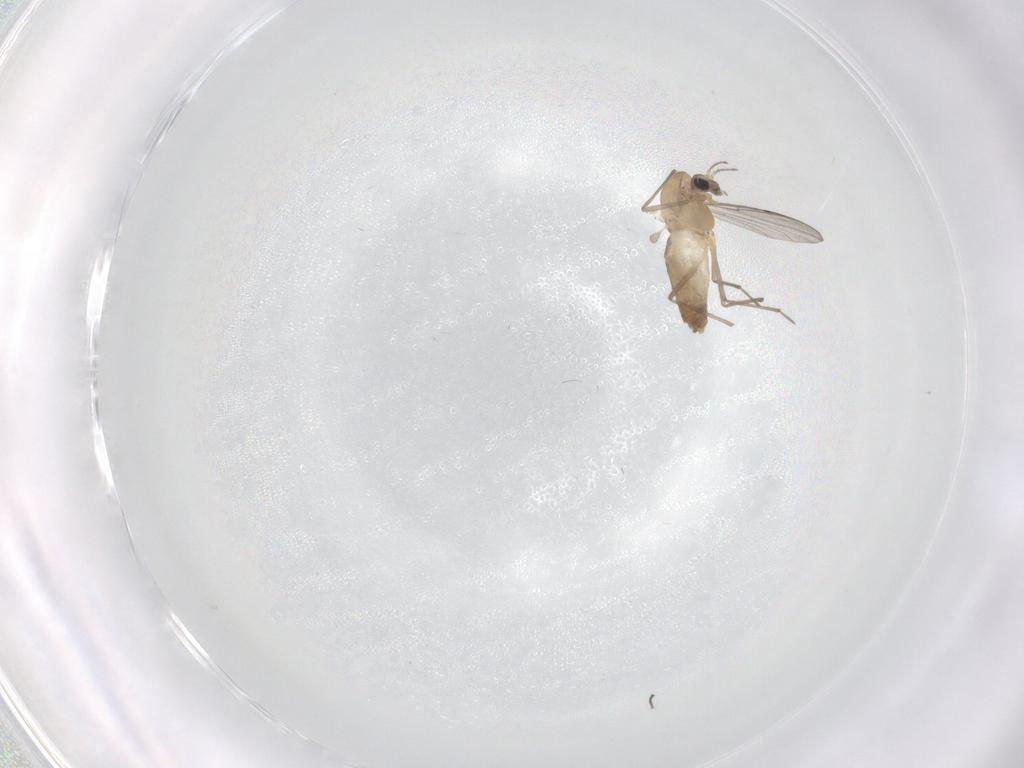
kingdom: Animalia
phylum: Arthropoda
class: Insecta
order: Diptera
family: Chironomidae
